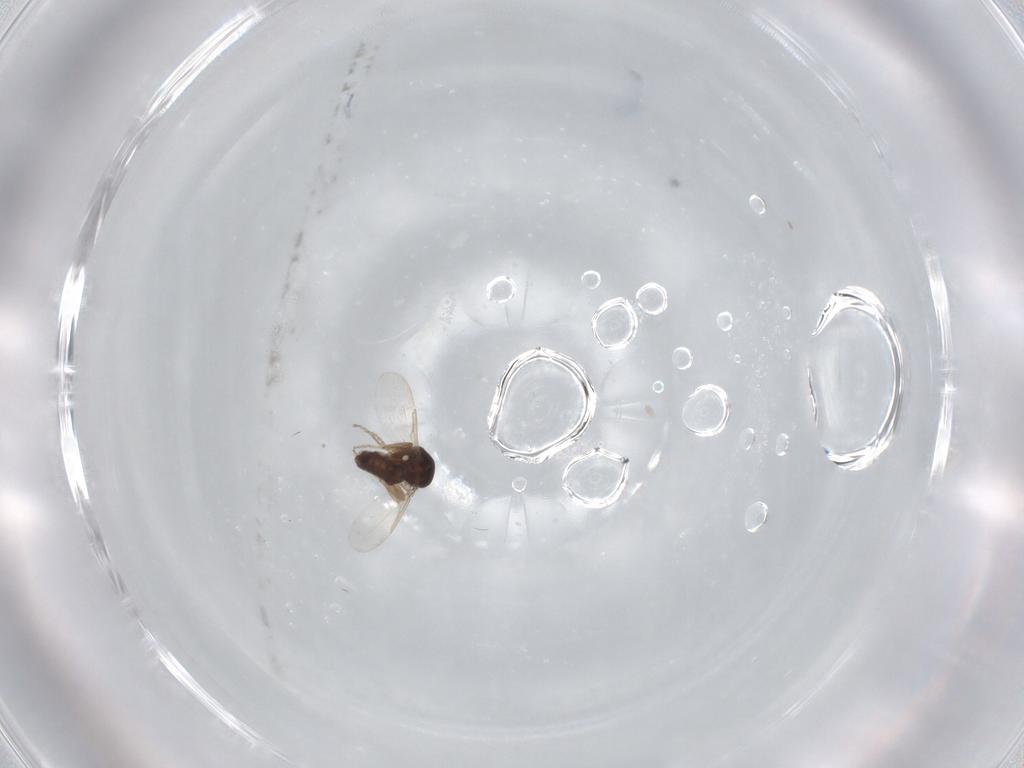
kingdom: Animalia
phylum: Arthropoda
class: Insecta
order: Diptera
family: Ceratopogonidae
